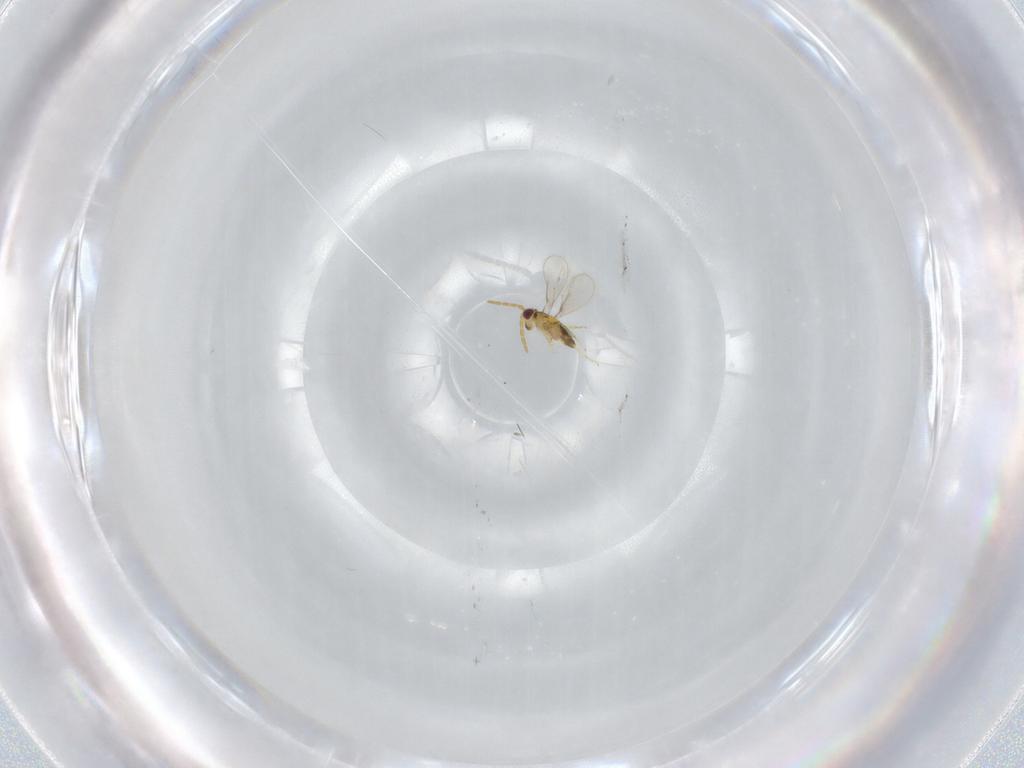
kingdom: Animalia
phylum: Arthropoda
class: Insecta
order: Hymenoptera
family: Aphelinidae
